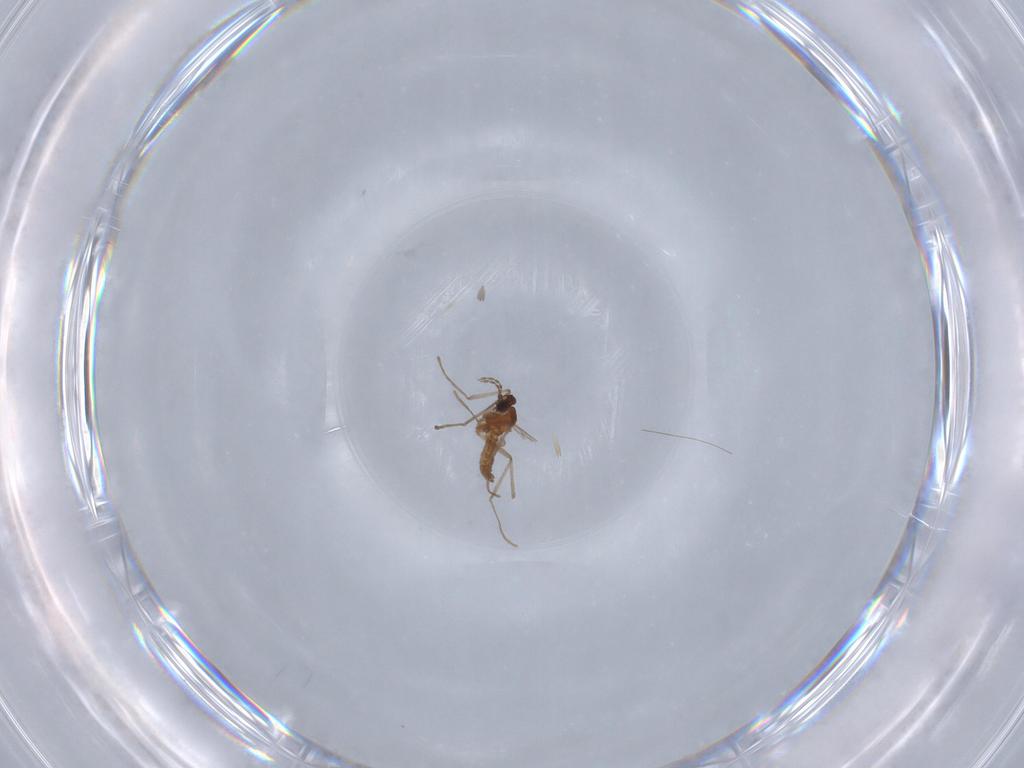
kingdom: Animalia
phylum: Arthropoda
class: Insecta
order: Diptera
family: Cecidomyiidae
